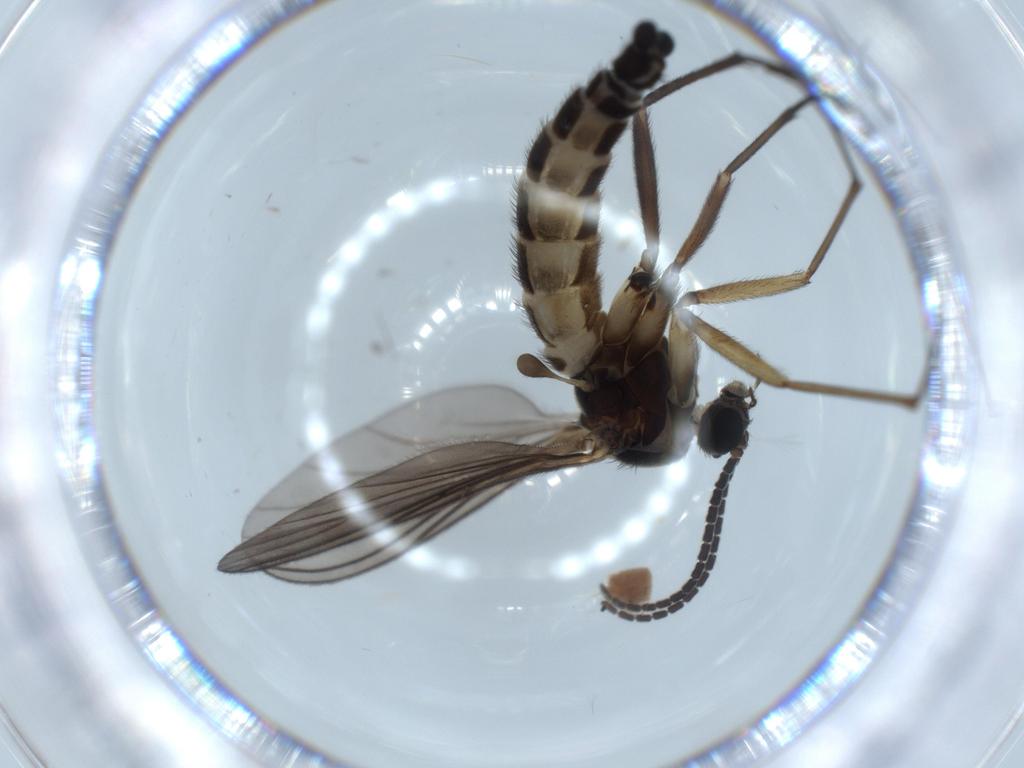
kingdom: Animalia
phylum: Arthropoda
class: Insecta
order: Diptera
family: Sciaridae
